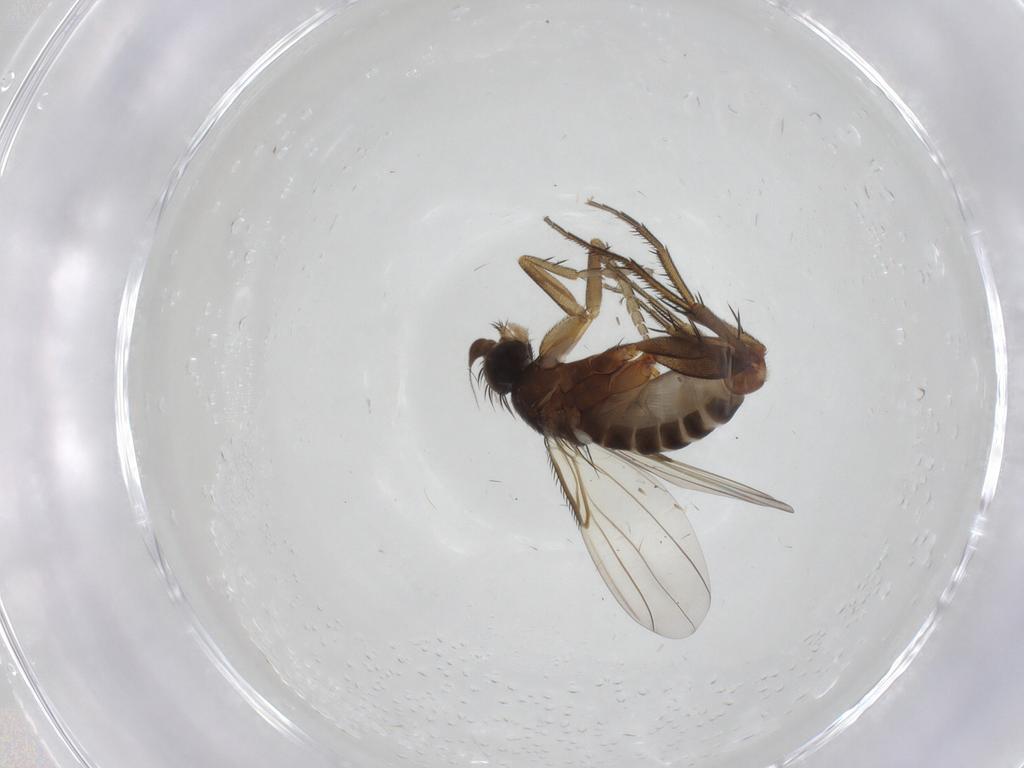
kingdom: Animalia
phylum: Arthropoda
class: Insecta
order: Diptera
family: Phoridae
